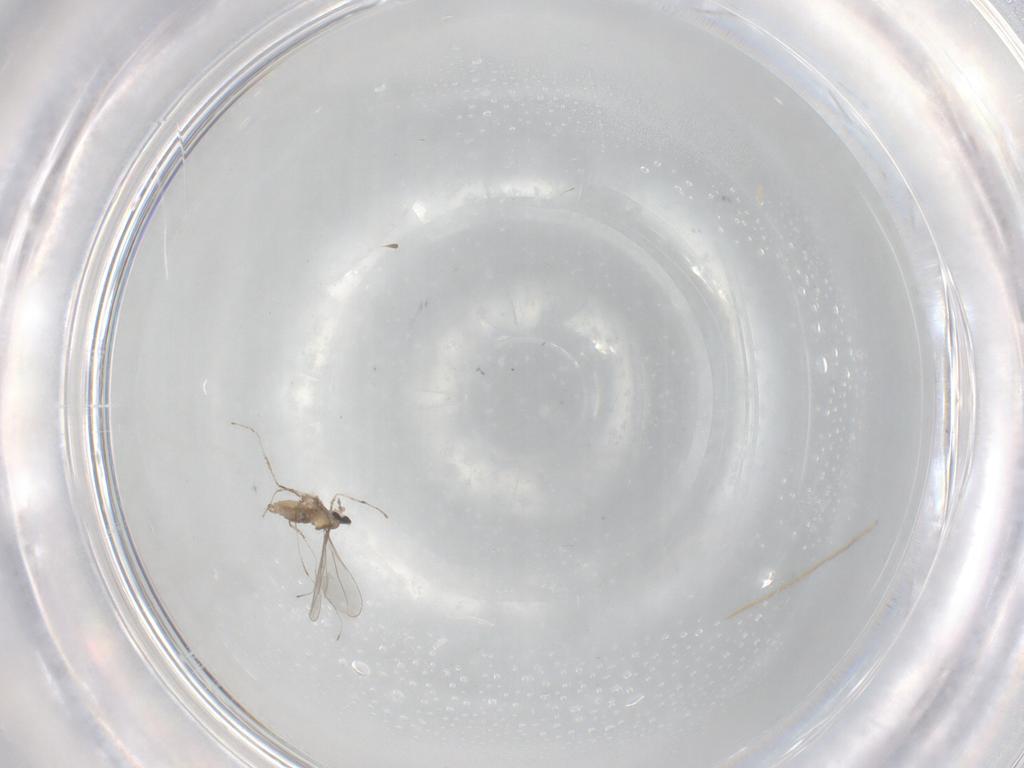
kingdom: Animalia
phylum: Arthropoda
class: Insecta
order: Diptera
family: Cecidomyiidae
